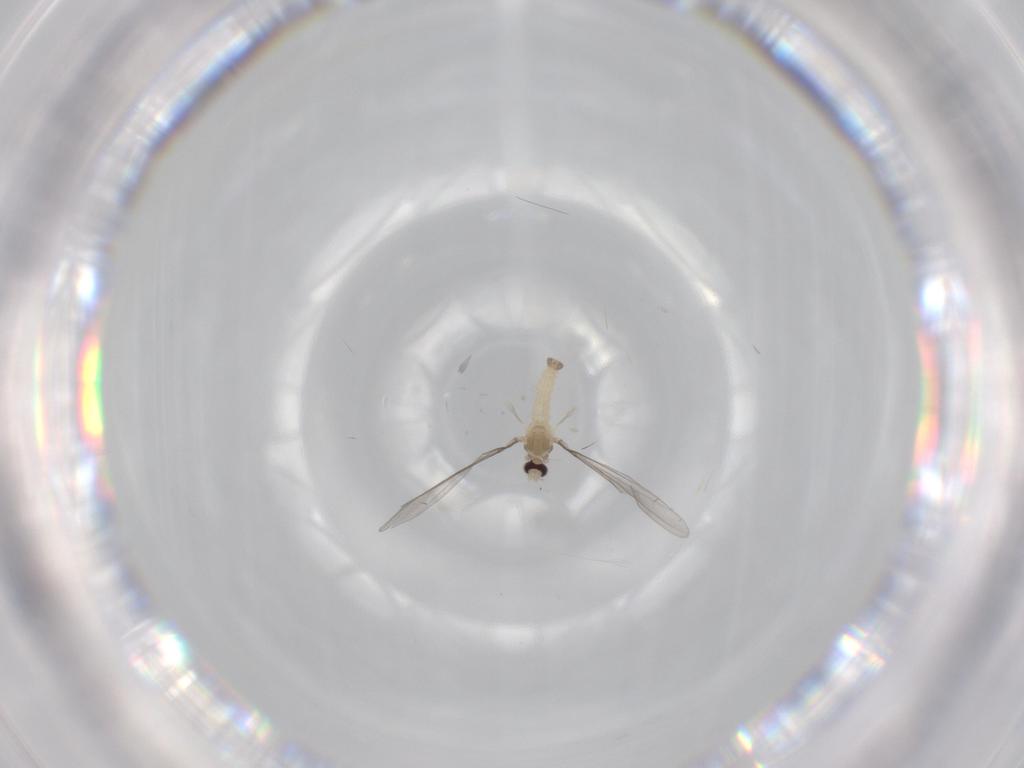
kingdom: Animalia
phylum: Arthropoda
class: Insecta
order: Diptera
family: Cecidomyiidae
